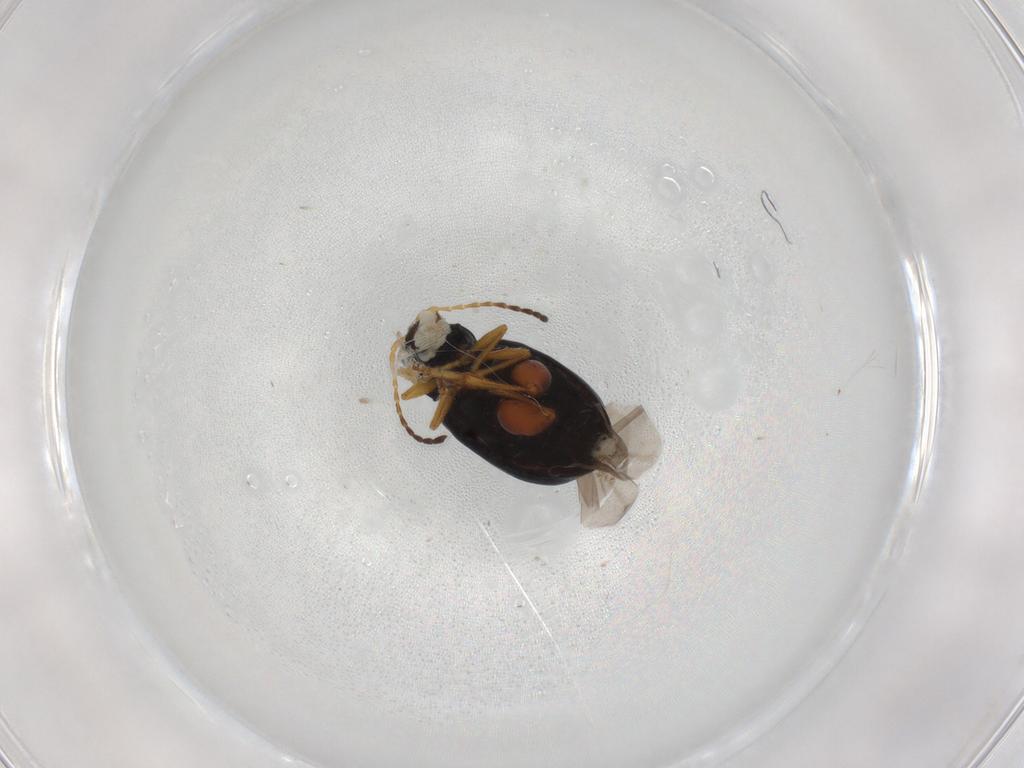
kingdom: Animalia
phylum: Arthropoda
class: Insecta
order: Coleoptera
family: Chrysomelidae
